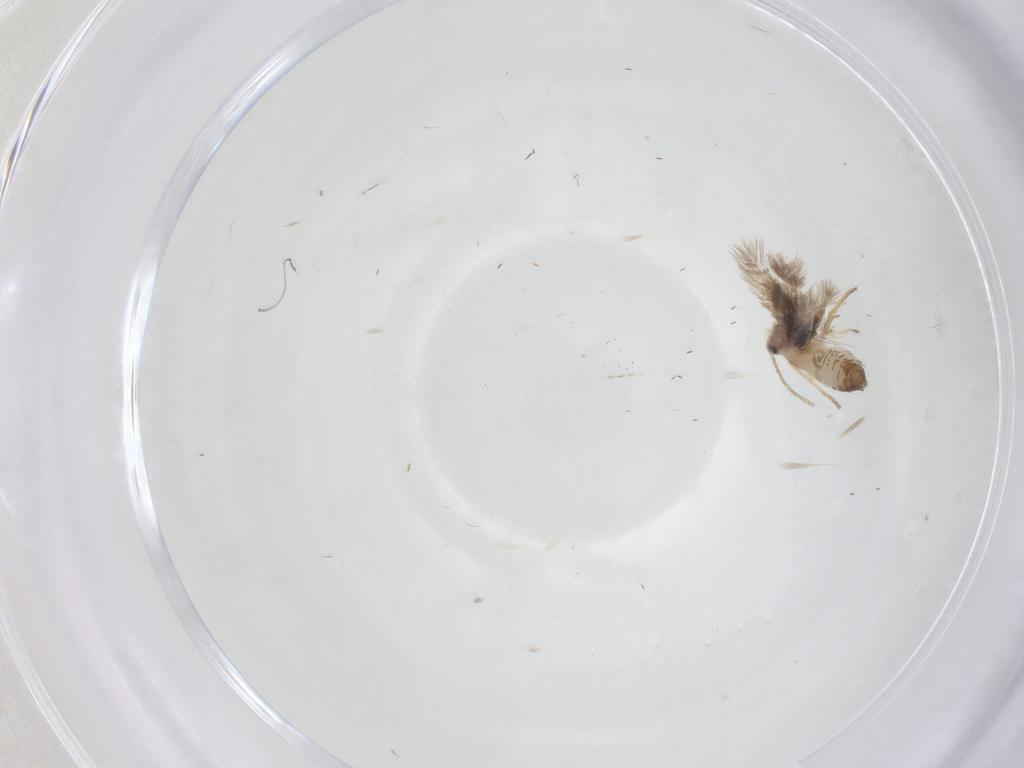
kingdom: Animalia
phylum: Arthropoda
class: Insecta
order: Lepidoptera
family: Nepticulidae
